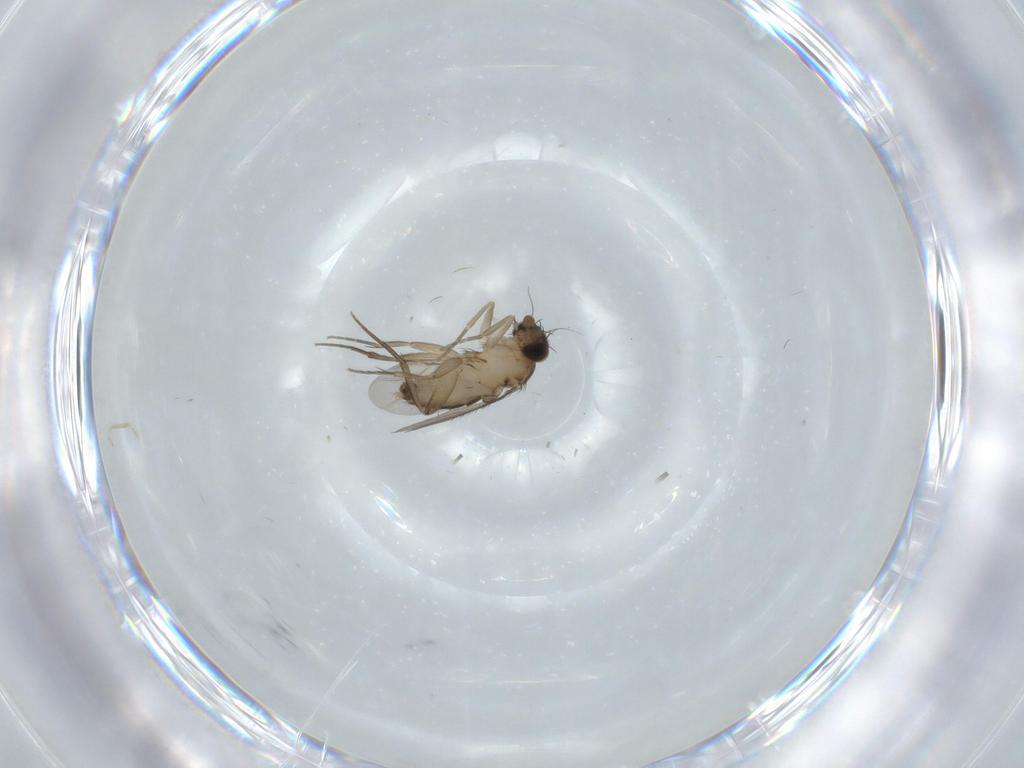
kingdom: Animalia
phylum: Arthropoda
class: Insecta
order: Diptera
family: Phoridae
